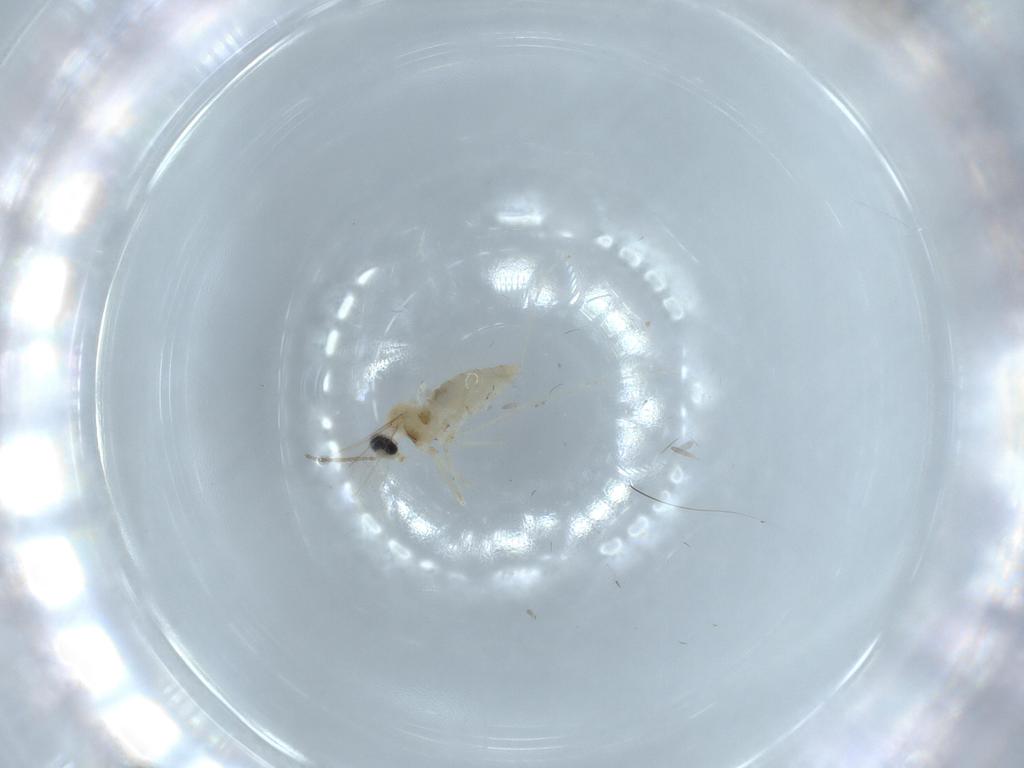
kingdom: Animalia
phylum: Arthropoda
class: Insecta
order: Diptera
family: Cecidomyiidae
